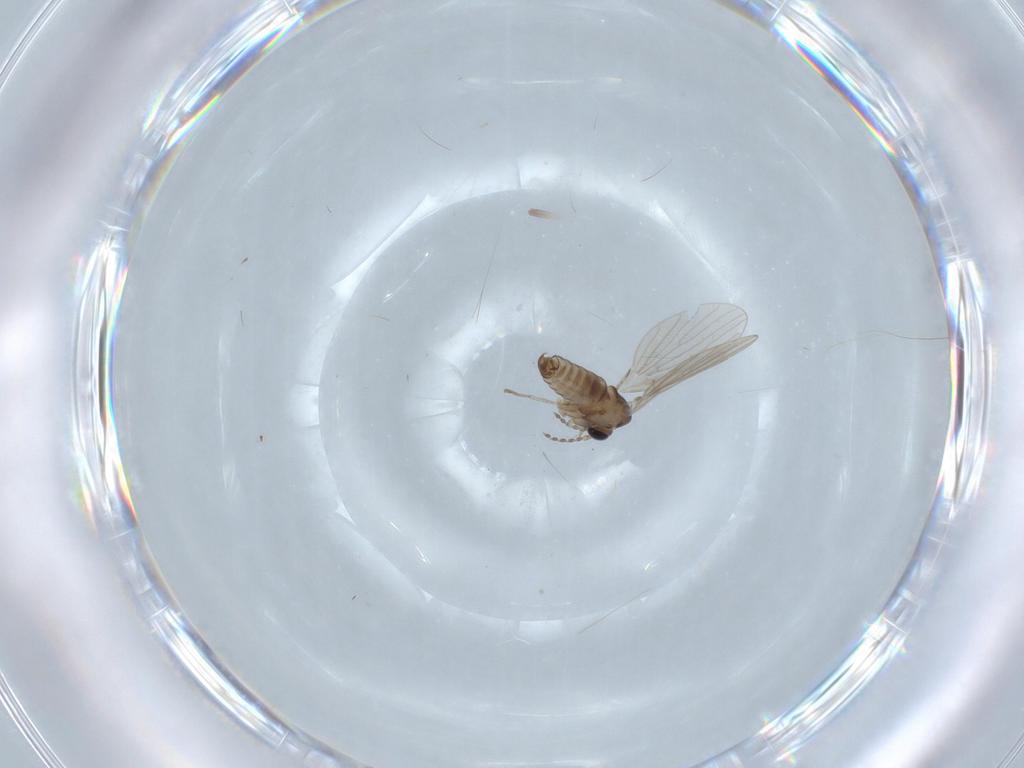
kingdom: Animalia
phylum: Arthropoda
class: Insecta
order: Diptera
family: Psychodidae
